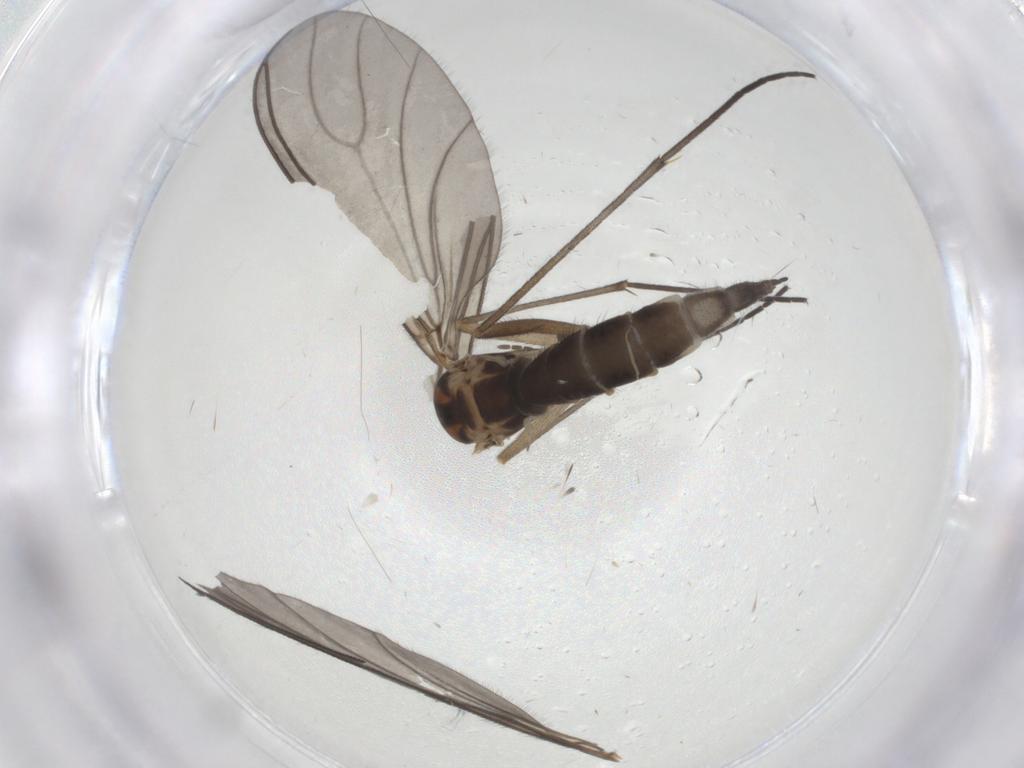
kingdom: Animalia
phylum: Arthropoda
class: Insecta
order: Diptera
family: Sciaridae
